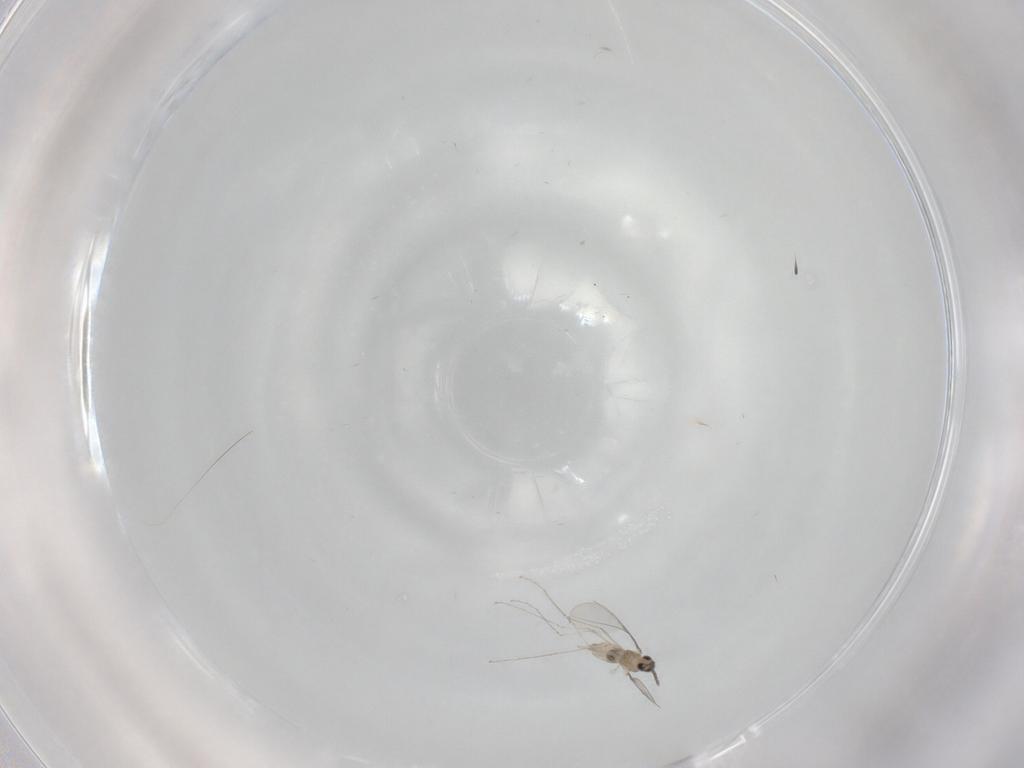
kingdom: Animalia
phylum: Arthropoda
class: Insecta
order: Diptera
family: Cecidomyiidae
